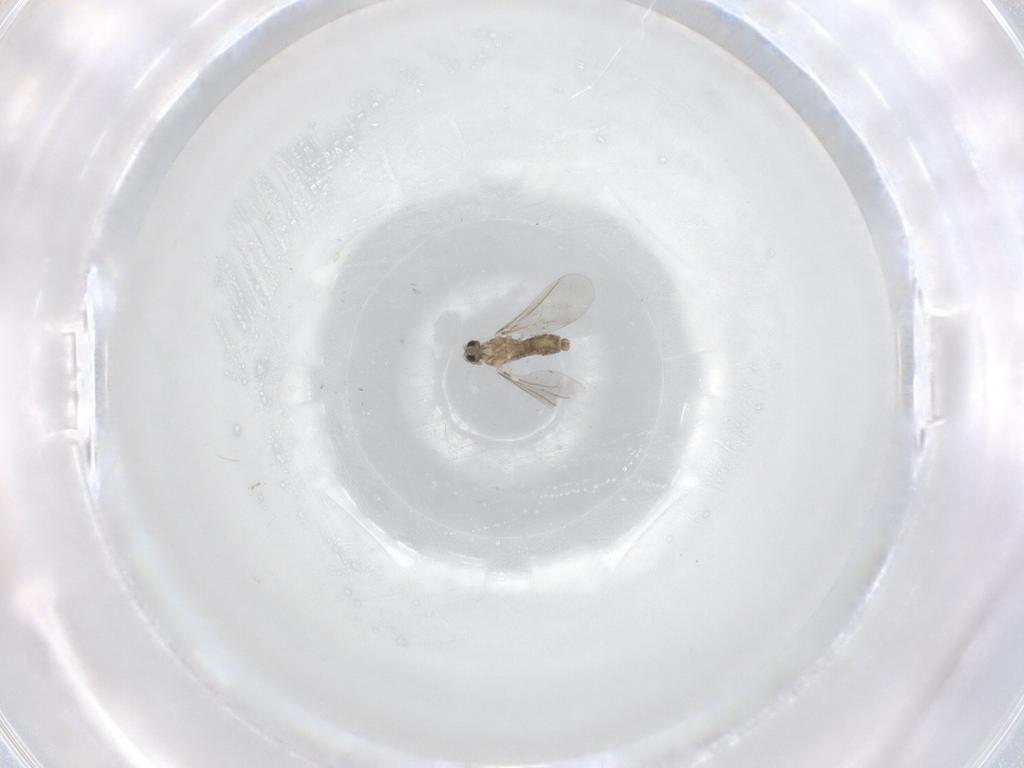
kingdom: Animalia
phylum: Arthropoda
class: Insecta
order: Diptera
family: Cecidomyiidae
